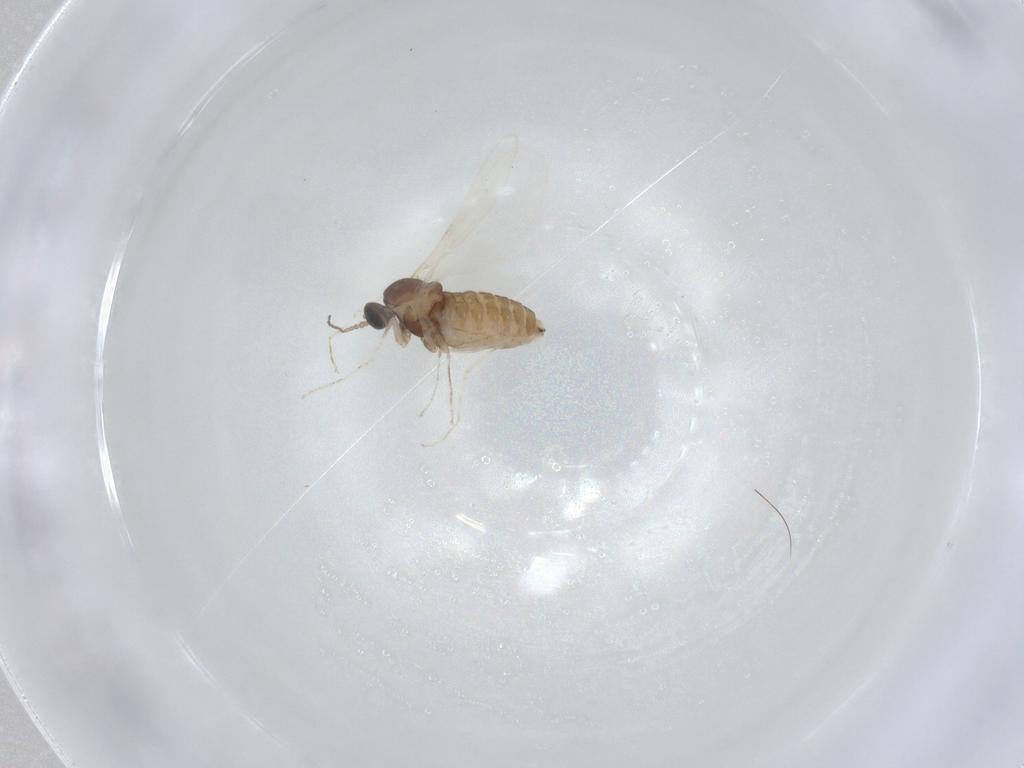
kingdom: Animalia
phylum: Arthropoda
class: Insecta
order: Diptera
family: Cecidomyiidae
